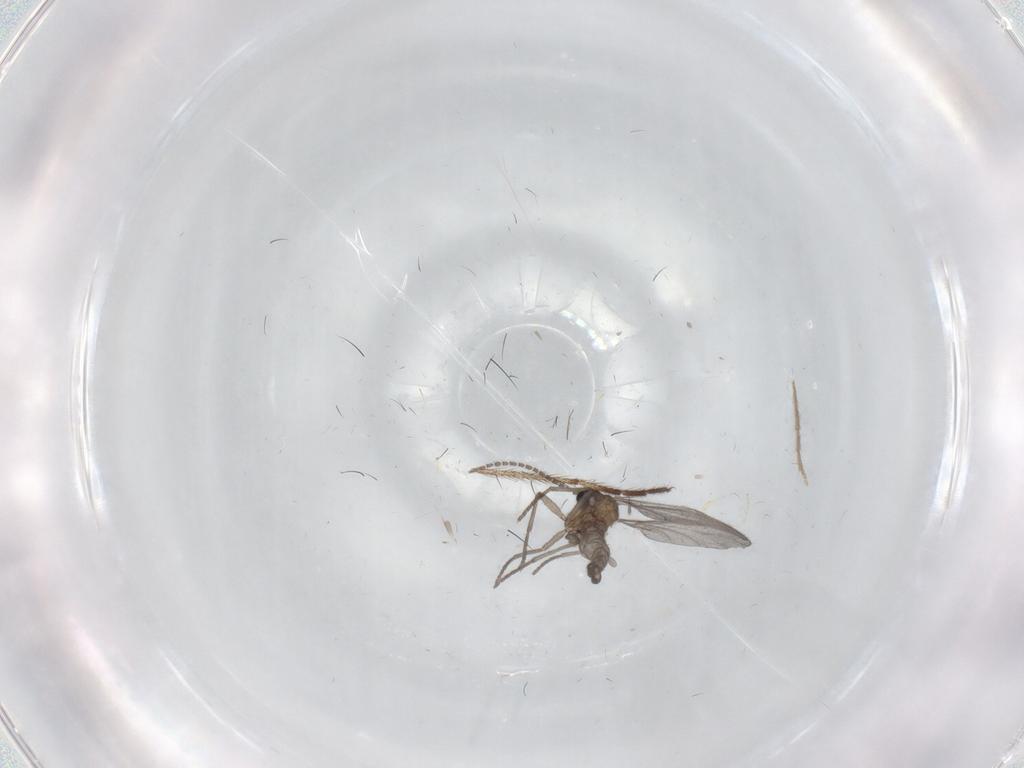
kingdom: Animalia
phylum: Arthropoda
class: Insecta
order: Diptera
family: Sciaridae
